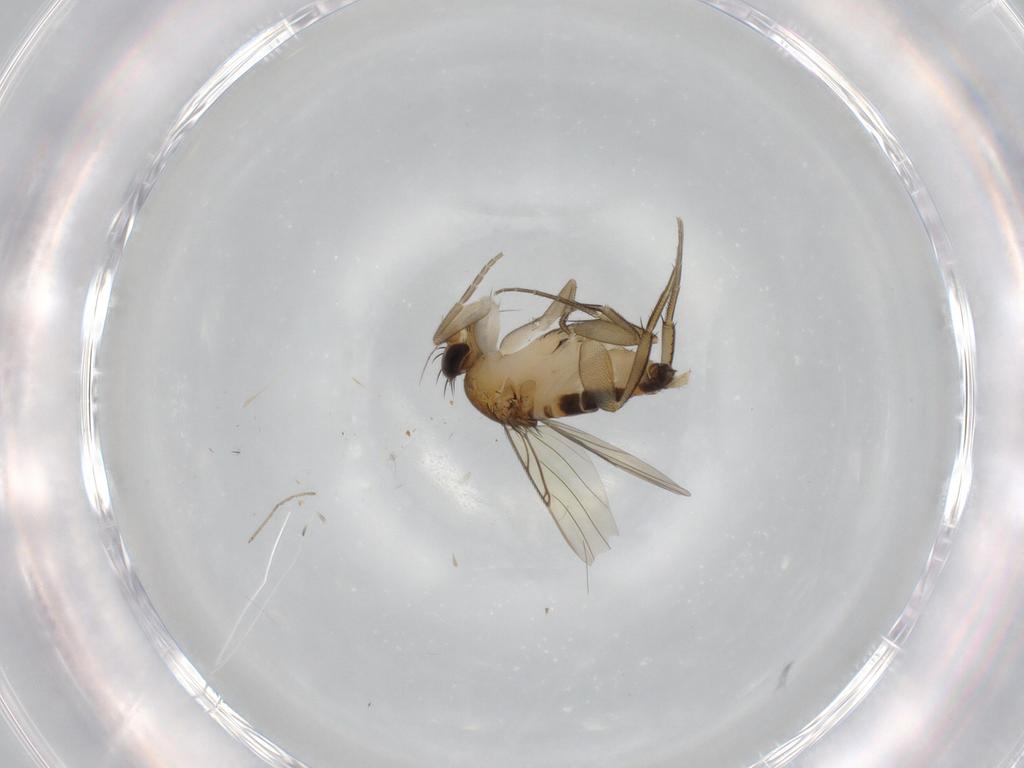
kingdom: Animalia
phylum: Arthropoda
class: Insecta
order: Diptera
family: Phoridae
